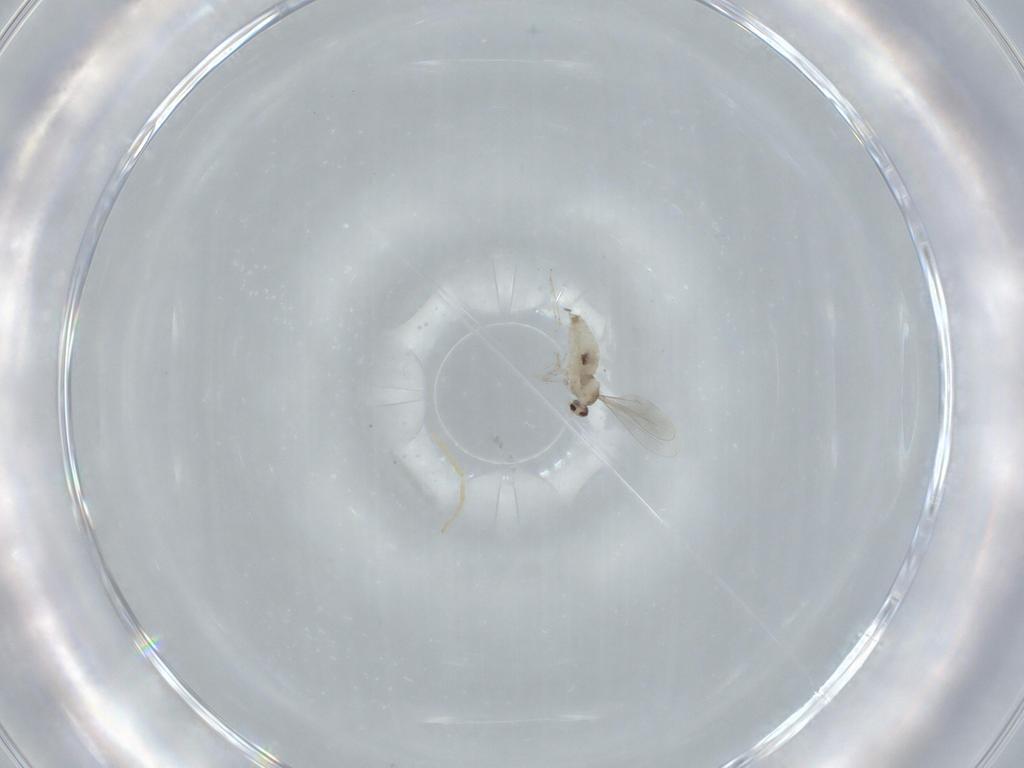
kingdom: Animalia
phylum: Arthropoda
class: Insecta
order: Diptera
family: Cecidomyiidae
